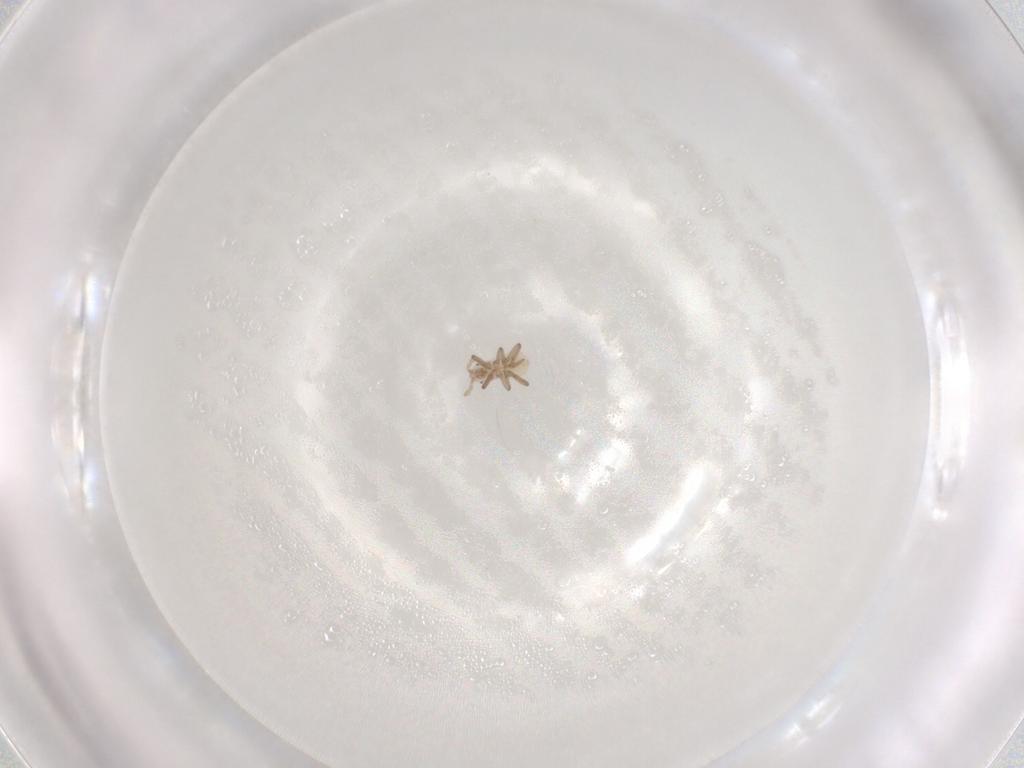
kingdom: Animalia
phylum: Arthropoda
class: Insecta
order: Hemiptera
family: Aphididae
